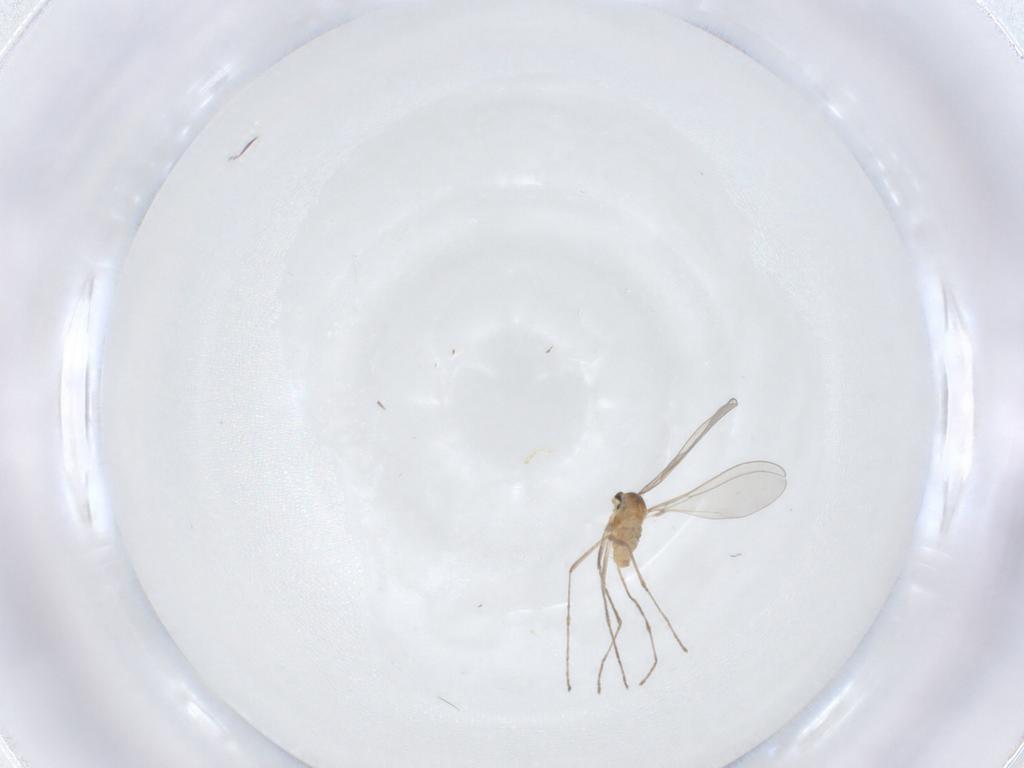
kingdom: Animalia
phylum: Arthropoda
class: Insecta
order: Diptera
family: Cecidomyiidae
